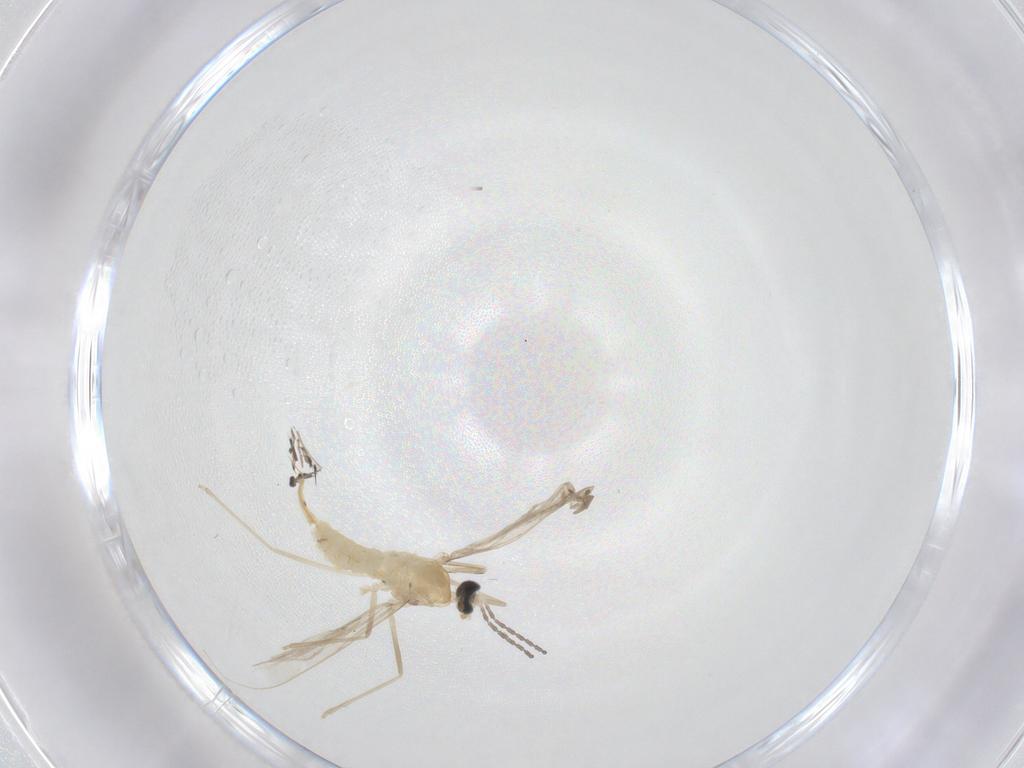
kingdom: Animalia
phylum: Arthropoda
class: Insecta
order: Diptera
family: Cecidomyiidae
